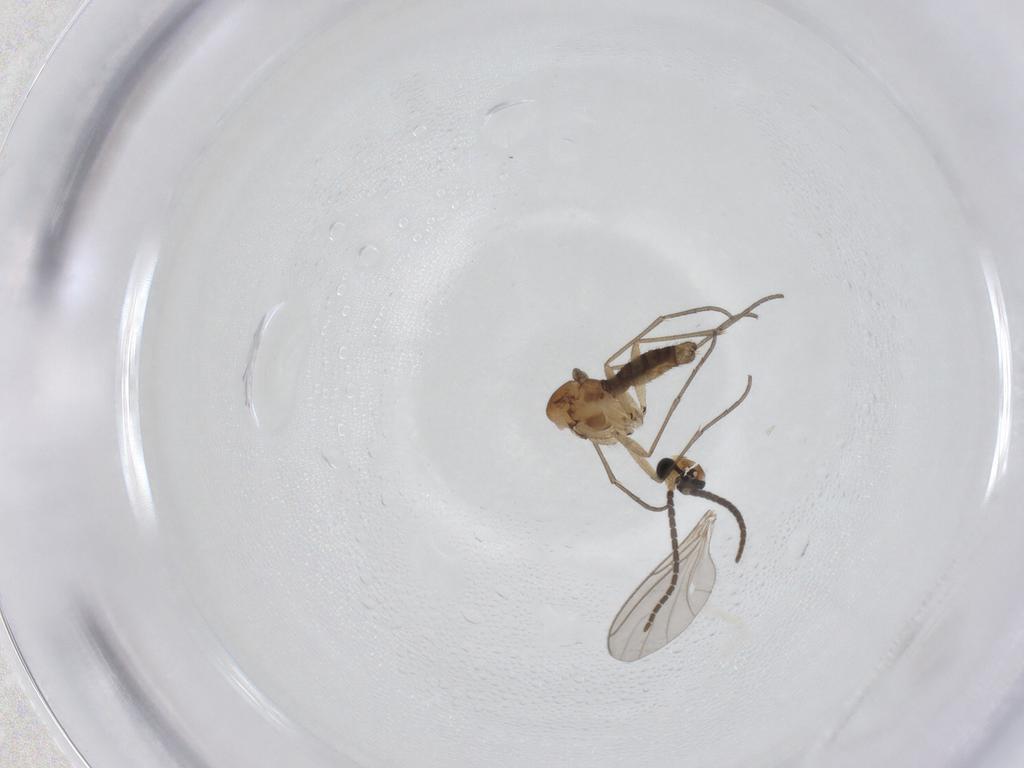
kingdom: Animalia
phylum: Arthropoda
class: Insecta
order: Diptera
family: Sciaridae
